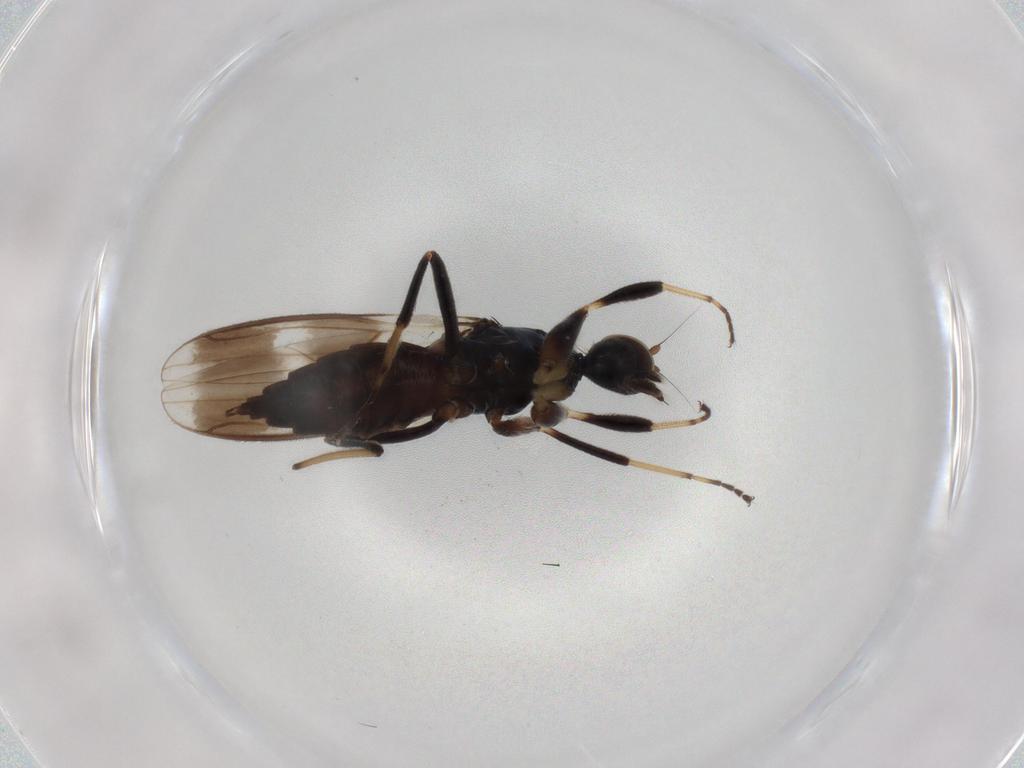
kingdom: Animalia
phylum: Arthropoda
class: Insecta
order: Diptera
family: Hybotidae
